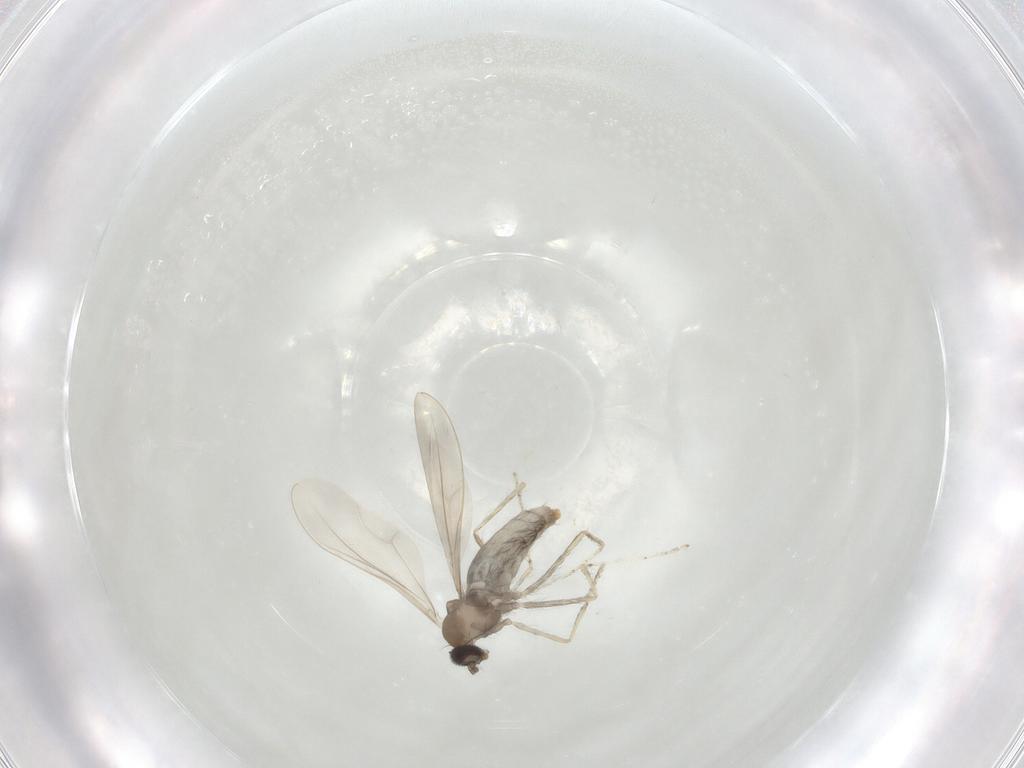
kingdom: Animalia
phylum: Arthropoda
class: Insecta
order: Diptera
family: Cecidomyiidae
